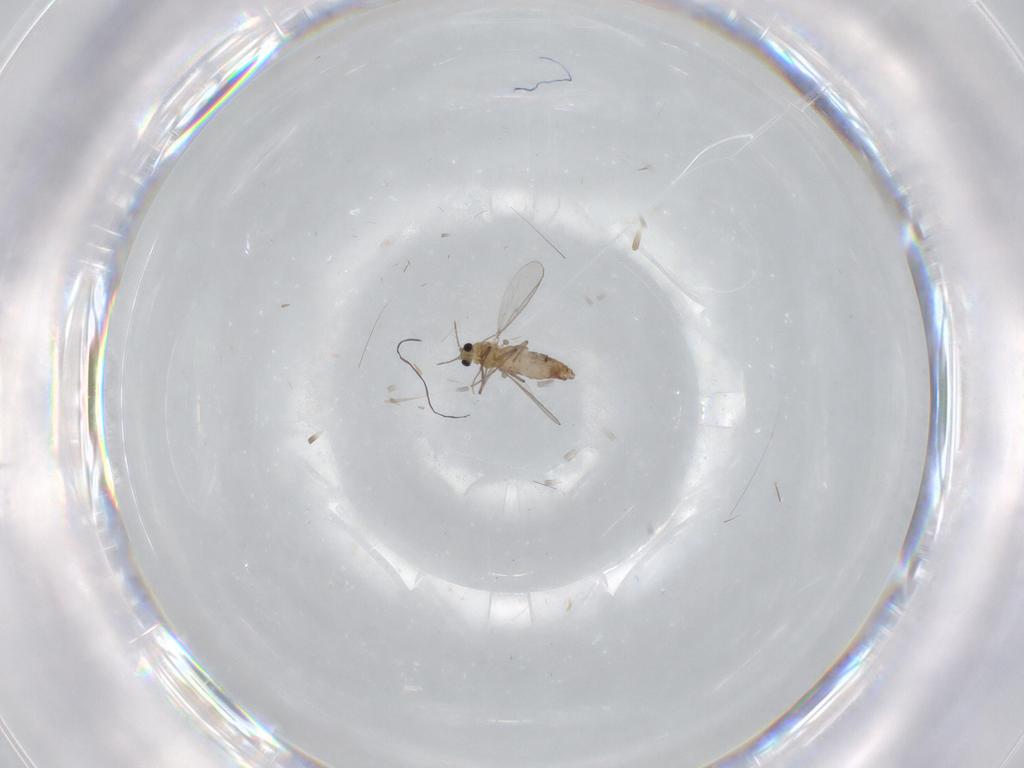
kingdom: Animalia
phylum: Arthropoda
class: Insecta
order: Diptera
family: Chironomidae
